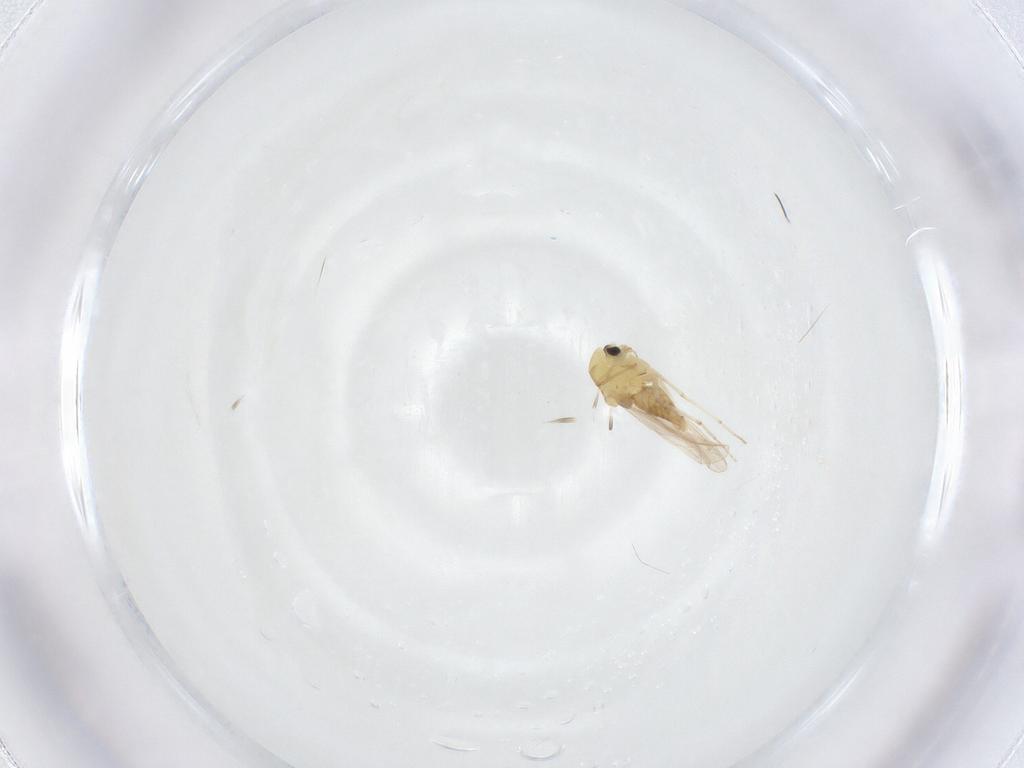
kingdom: Animalia
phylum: Arthropoda
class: Insecta
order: Diptera
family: Chironomidae
